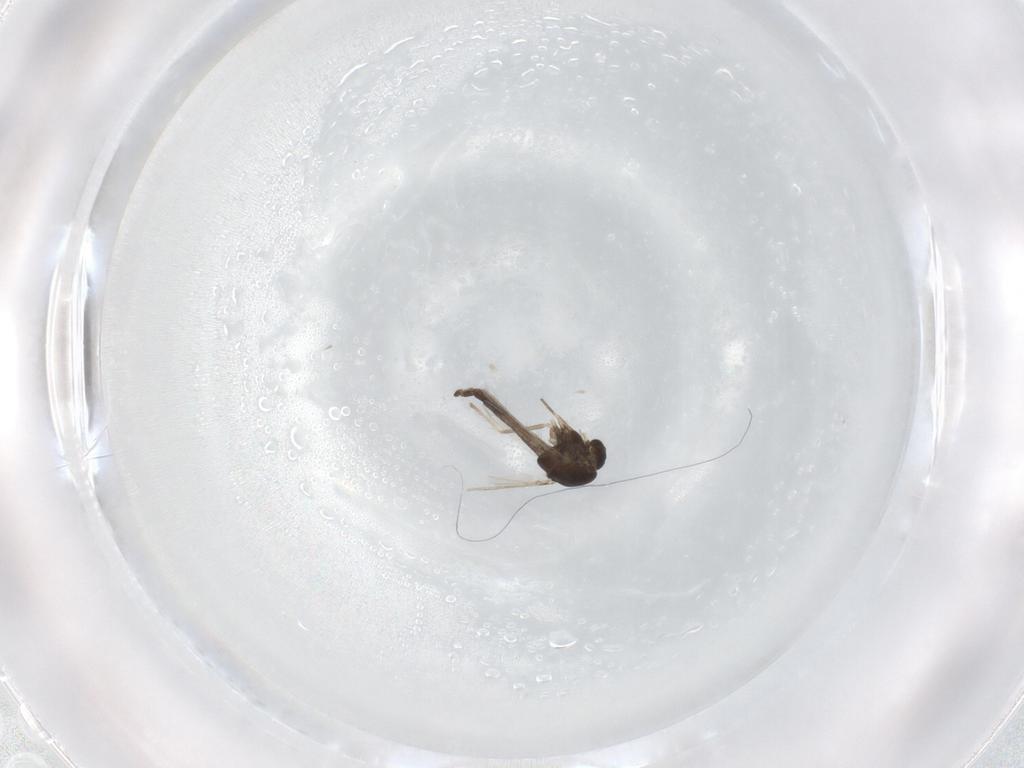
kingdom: Animalia
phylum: Arthropoda
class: Insecta
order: Diptera
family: Chironomidae
